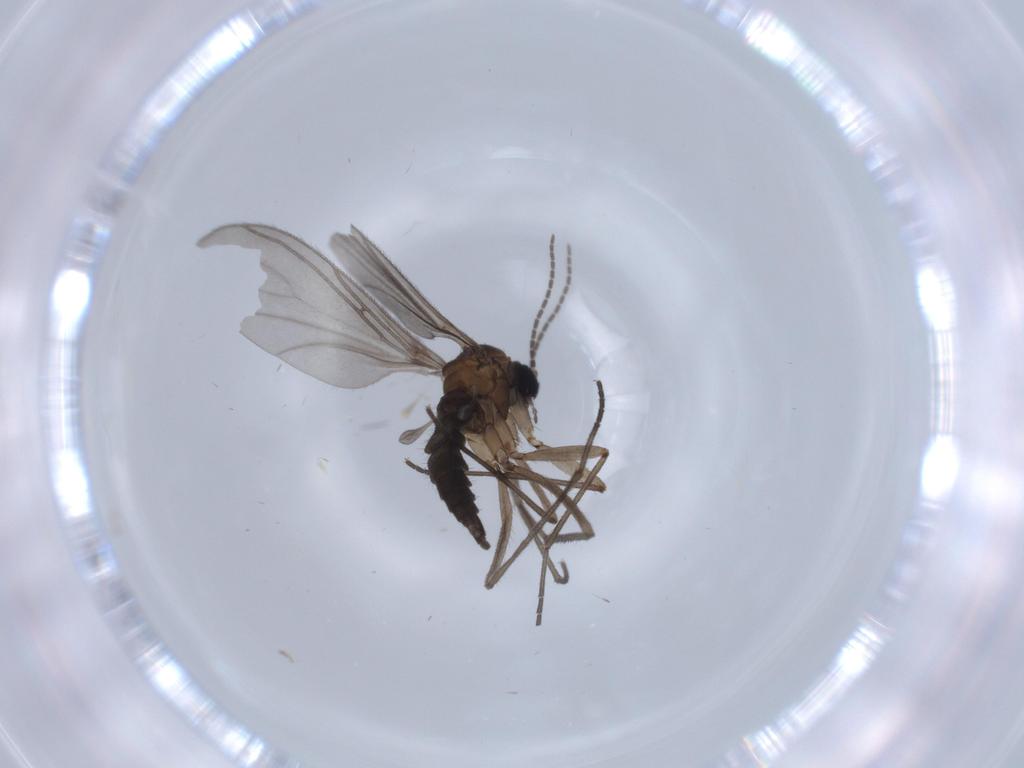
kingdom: Animalia
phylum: Arthropoda
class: Insecta
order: Diptera
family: Sciaridae
